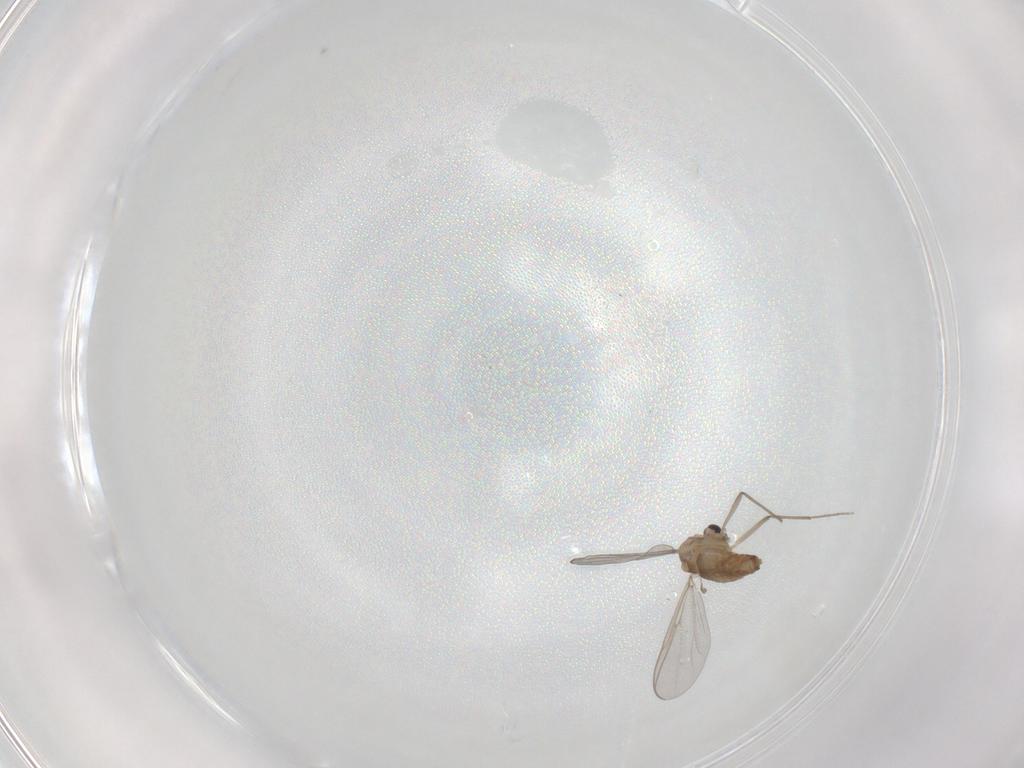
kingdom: Animalia
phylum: Arthropoda
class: Insecta
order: Diptera
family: Chironomidae
